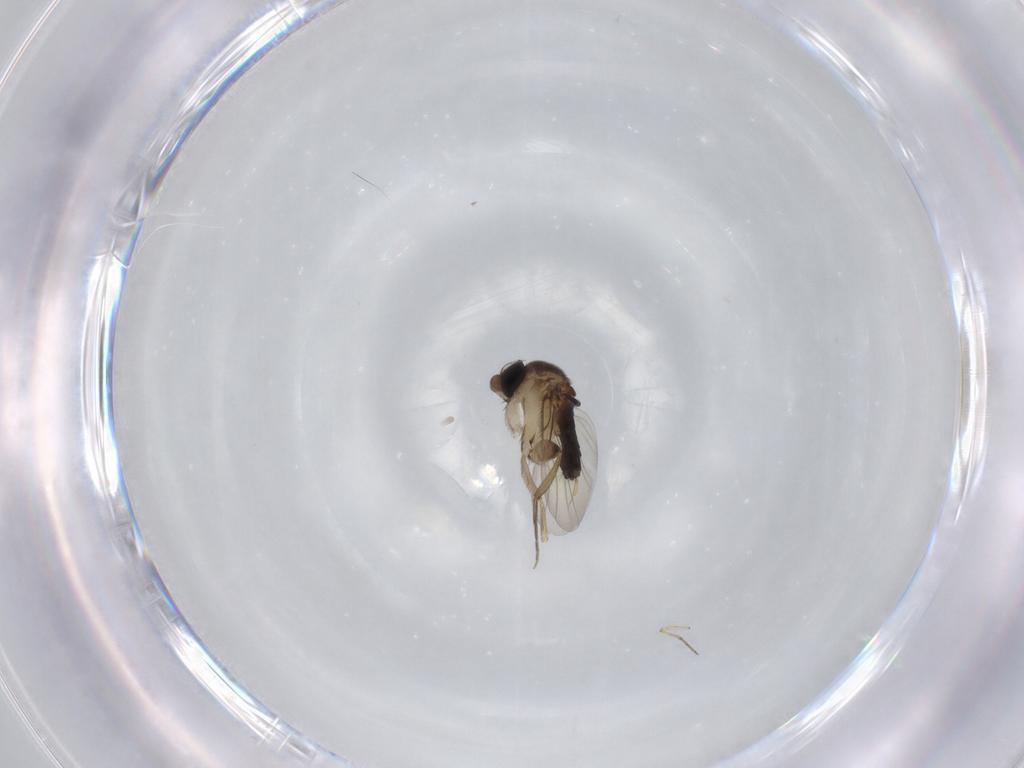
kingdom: Animalia
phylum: Arthropoda
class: Insecta
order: Diptera
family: Phoridae
